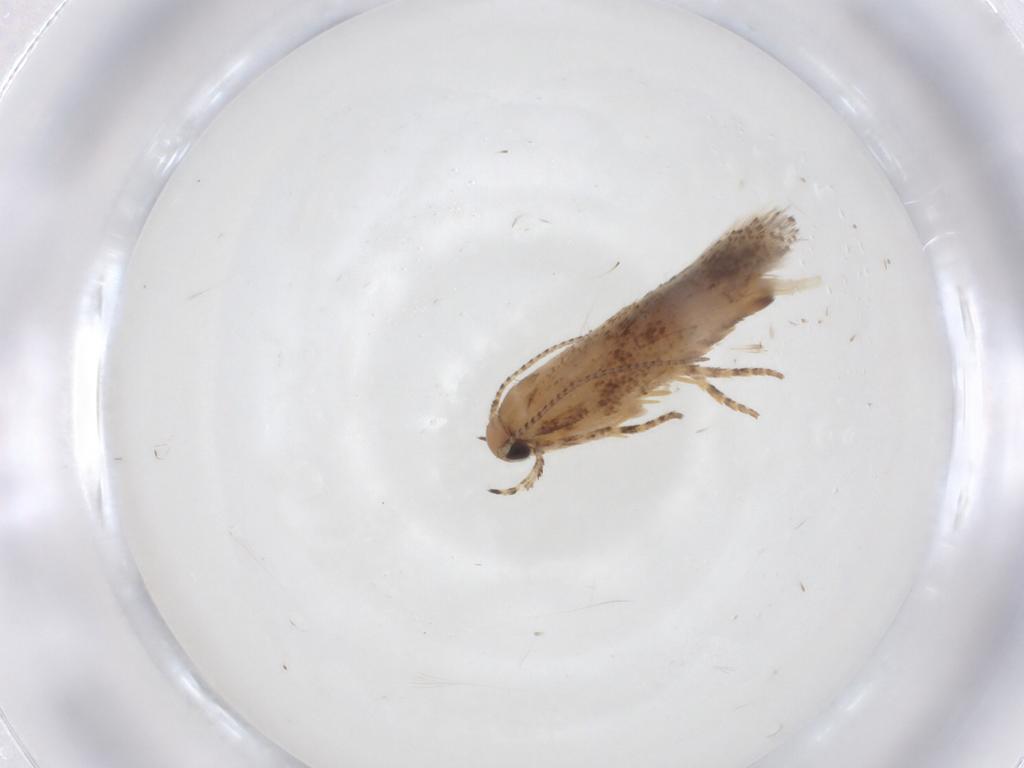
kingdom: Animalia
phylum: Arthropoda
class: Insecta
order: Lepidoptera
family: Gelechiidae
